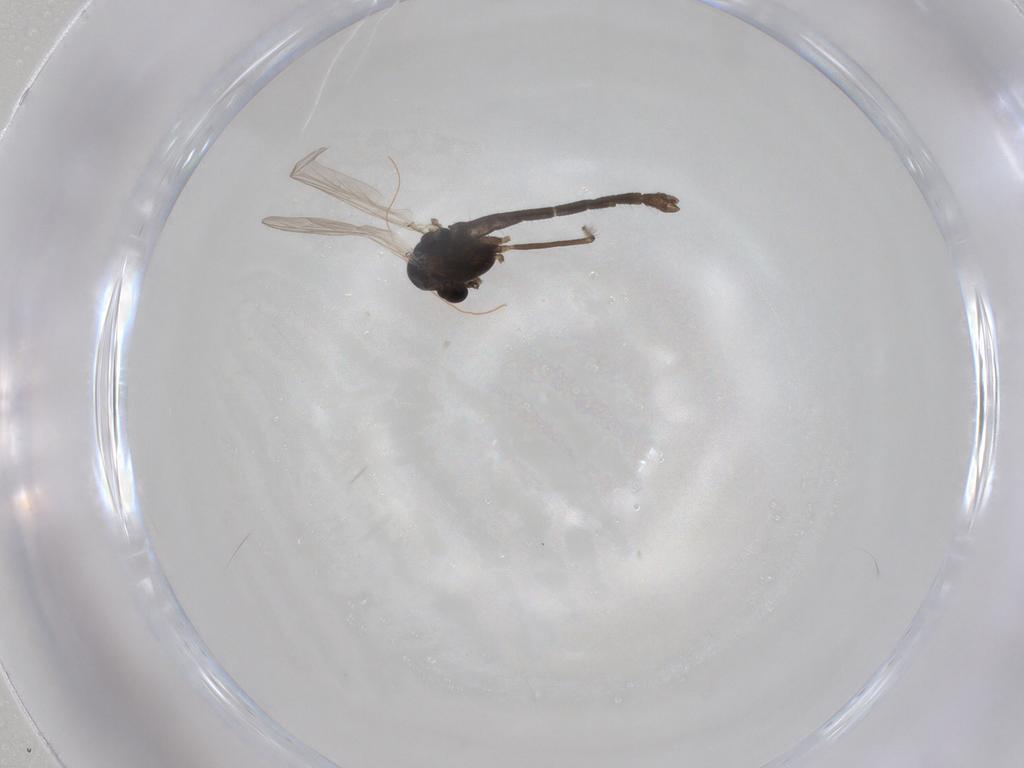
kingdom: Animalia
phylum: Arthropoda
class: Insecta
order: Diptera
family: Chironomidae
